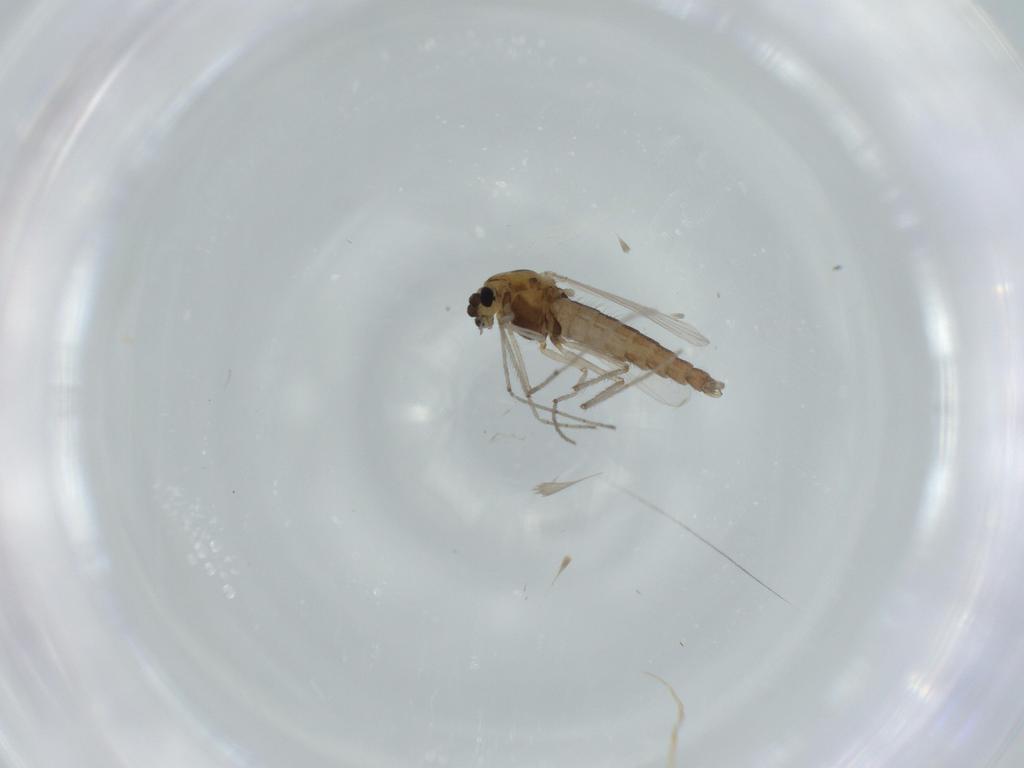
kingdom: Animalia
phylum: Arthropoda
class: Insecta
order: Diptera
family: Chironomidae
